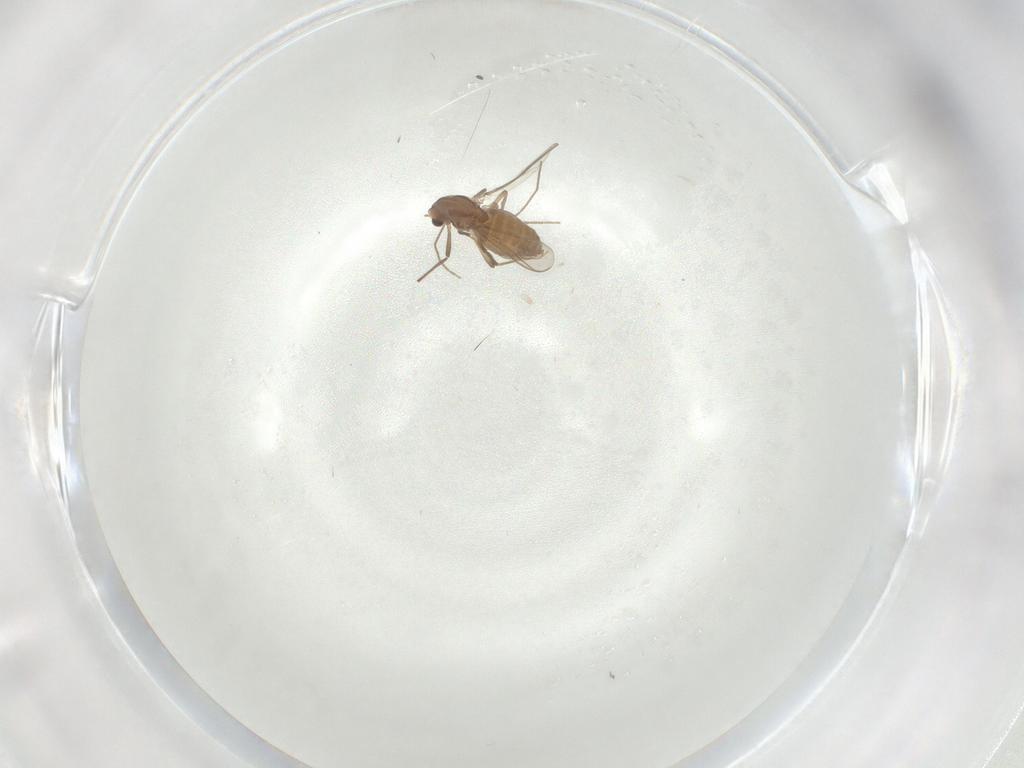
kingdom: Animalia
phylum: Arthropoda
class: Insecta
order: Diptera
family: Chironomidae
